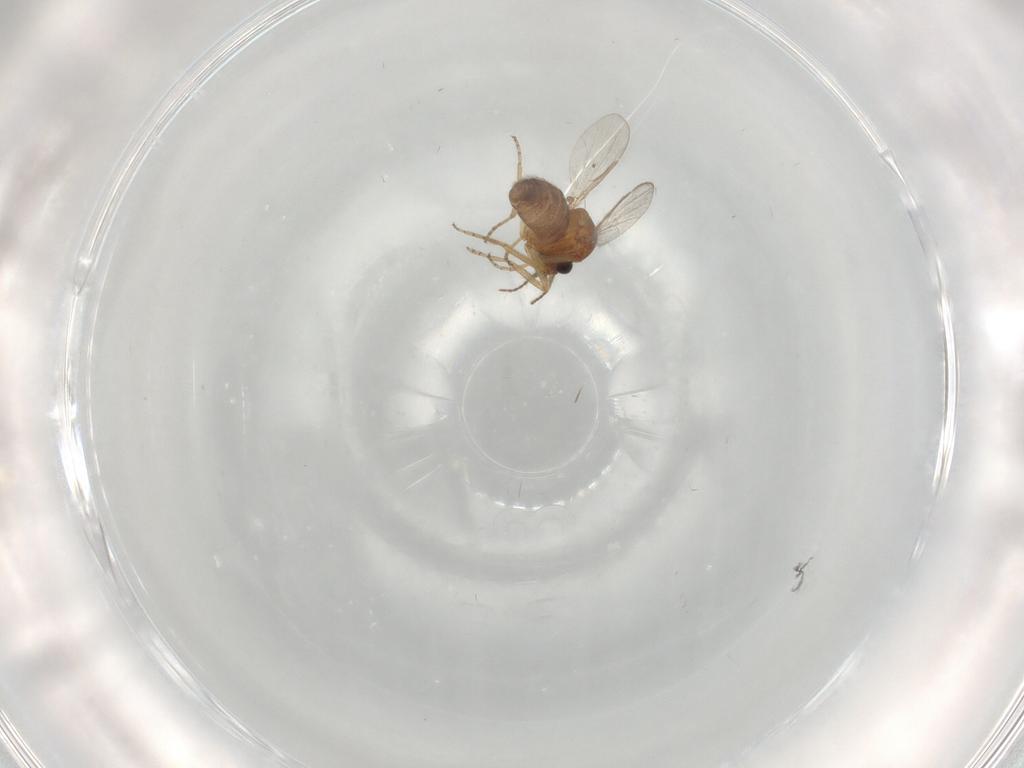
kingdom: Animalia
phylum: Arthropoda
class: Insecta
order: Diptera
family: Ceratopogonidae
